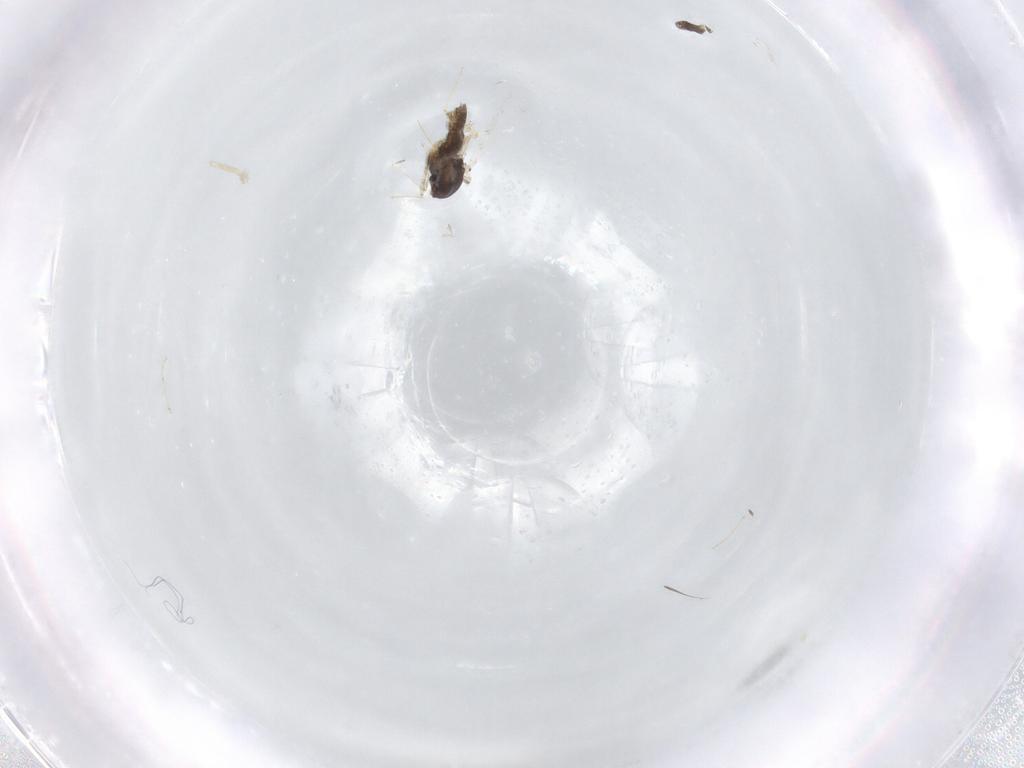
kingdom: Animalia
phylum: Arthropoda
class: Insecta
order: Diptera
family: Chironomidae
